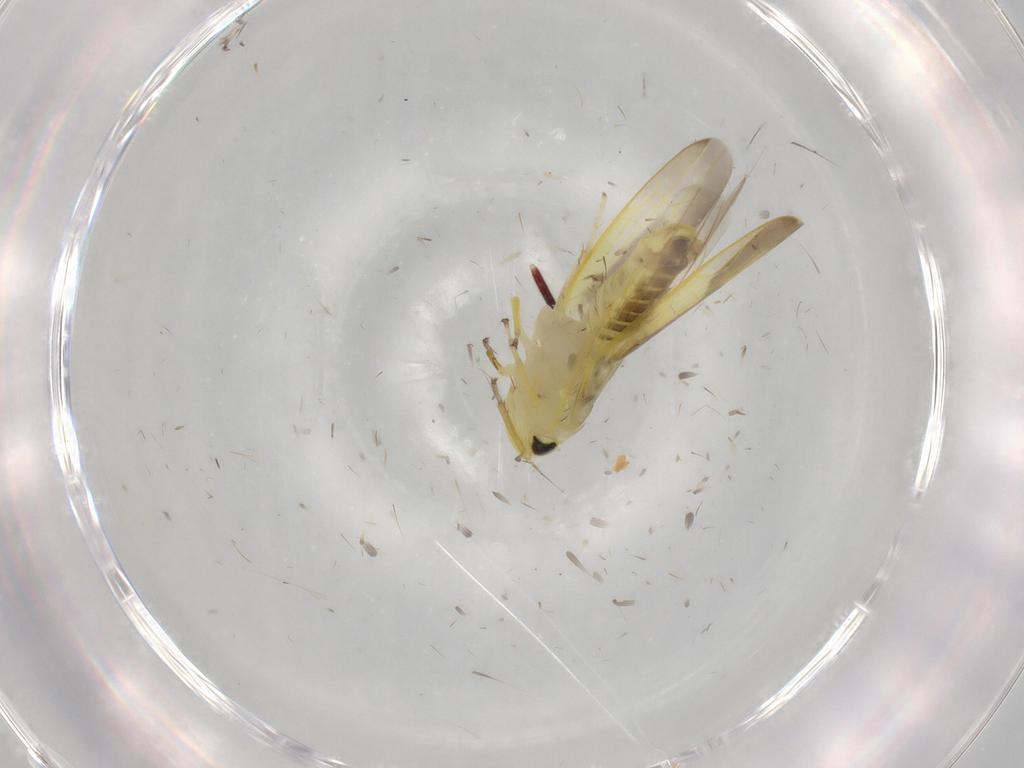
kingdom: Animalia
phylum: Arthropoda
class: Insecta
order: Hemiptera
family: Cicadellidae
